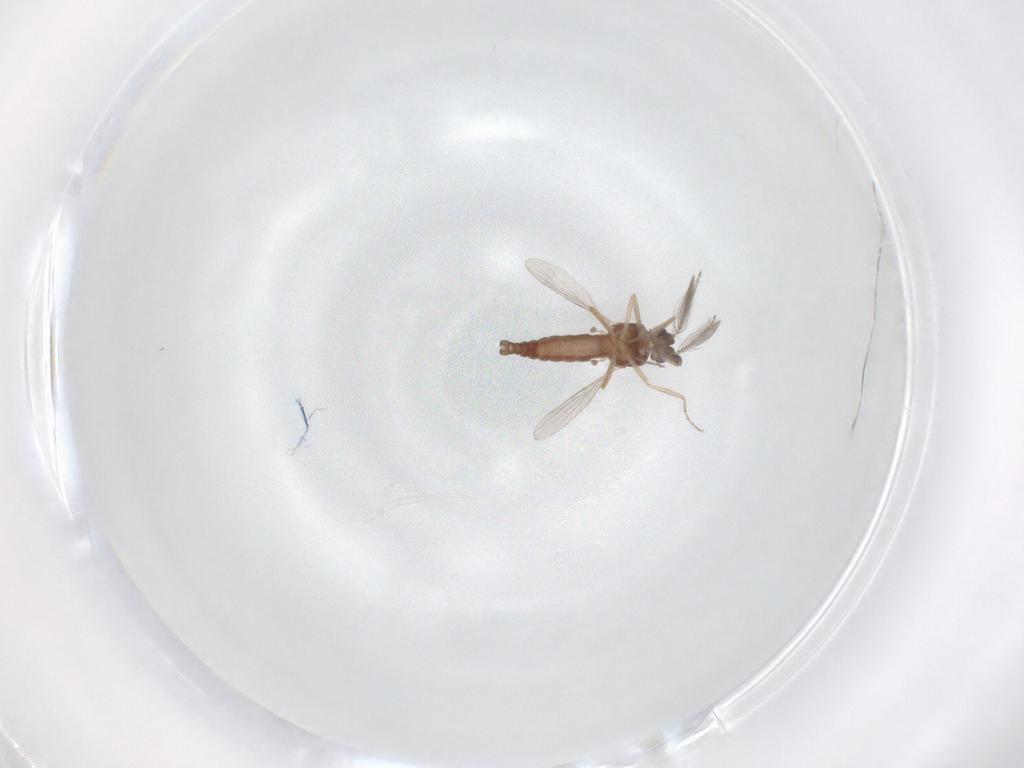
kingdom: Animalia
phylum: Arthropoda
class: Insecta
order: Diptera
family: Ceratopogonidae
